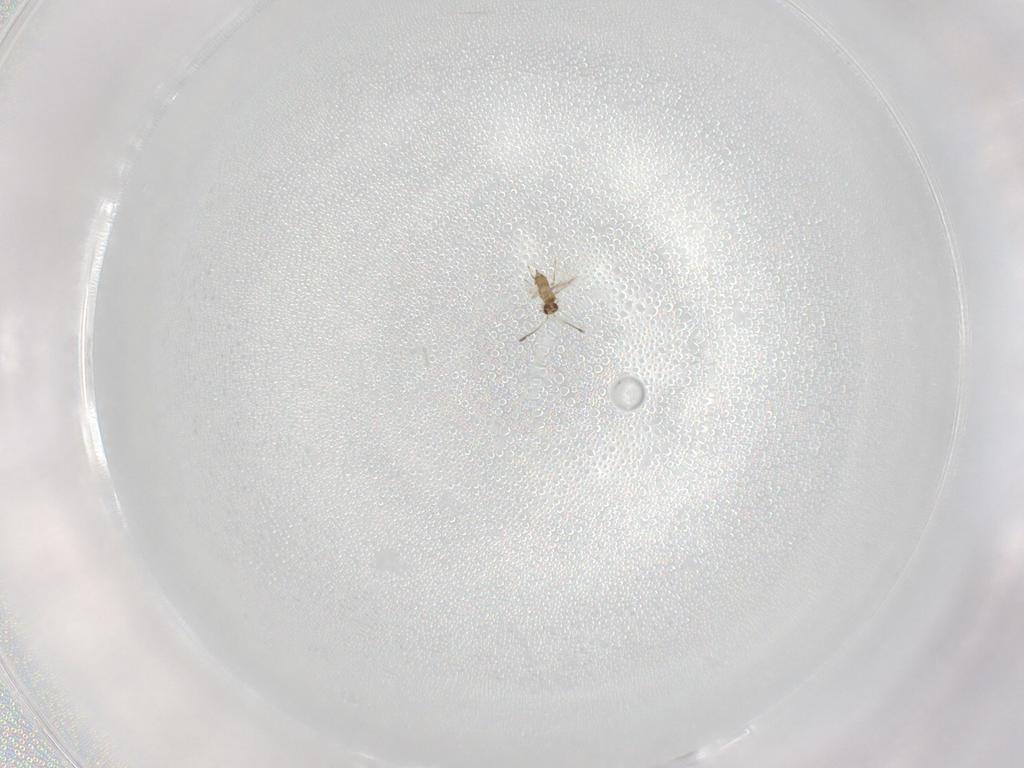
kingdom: Animalia
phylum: Arthropoda
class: Insecta
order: Hymenoptera
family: Mymaridae
